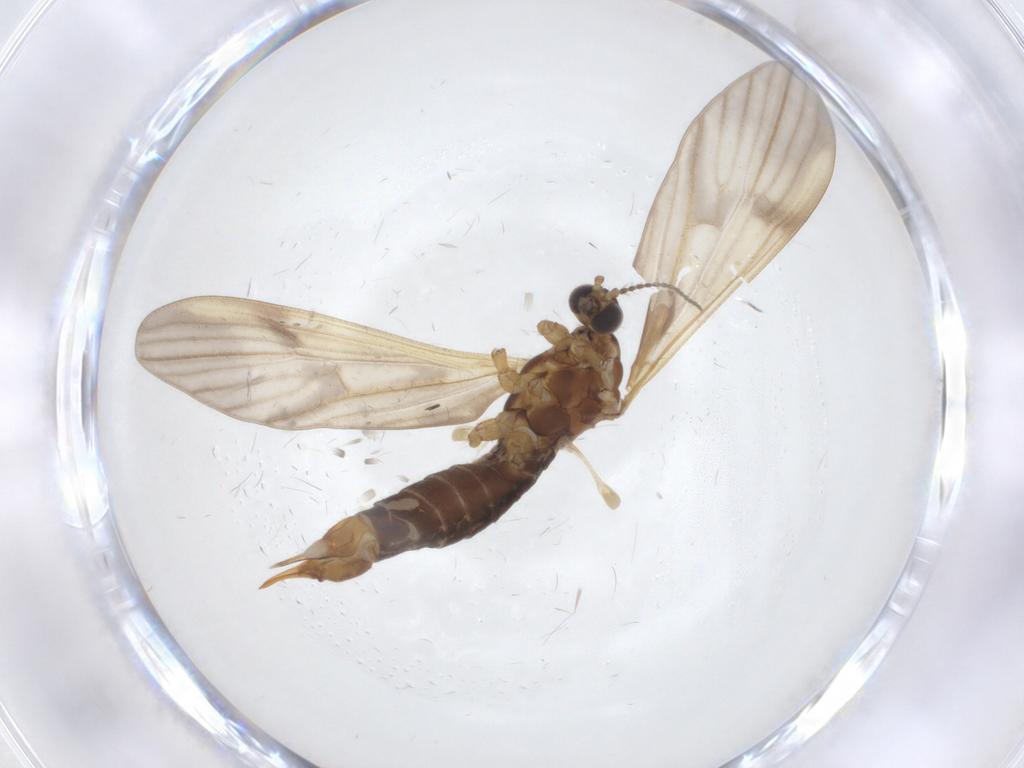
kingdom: Animalia
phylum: Arthropoda
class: Insecta
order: Diptera
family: Limoniidae
